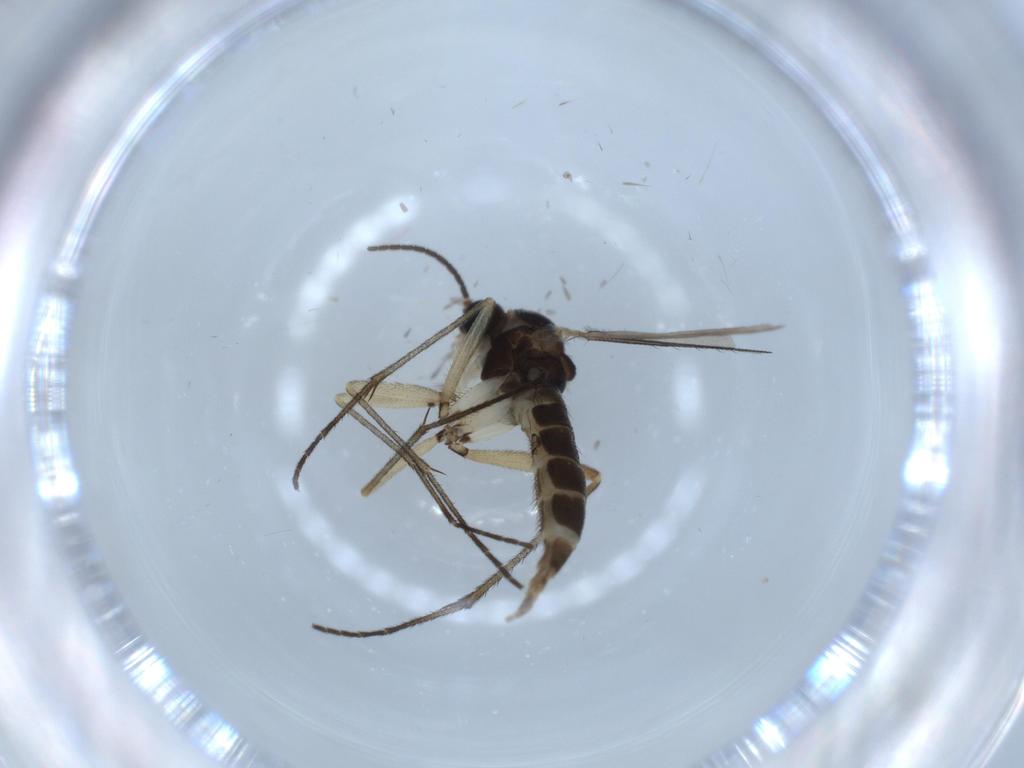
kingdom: Animalia
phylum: Arthropoda
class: Insecta
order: Diptera
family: Sciaridae
